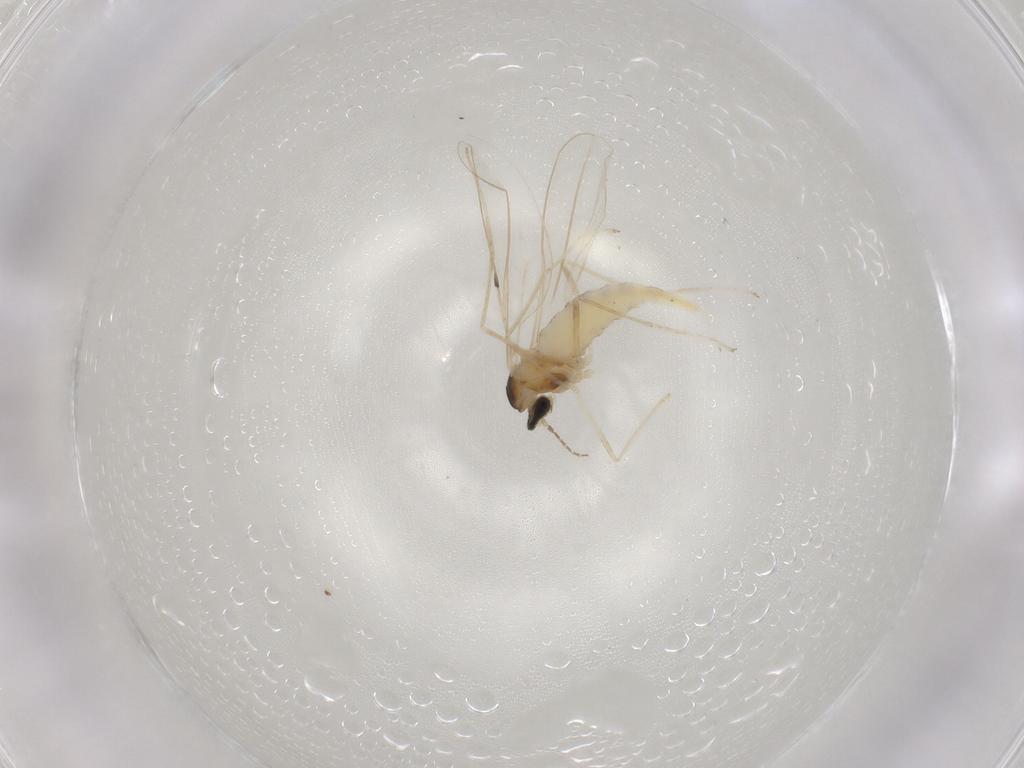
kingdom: Animalia
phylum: Arthropoda
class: Insecta
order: Diptera
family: Cecidomyiidae
